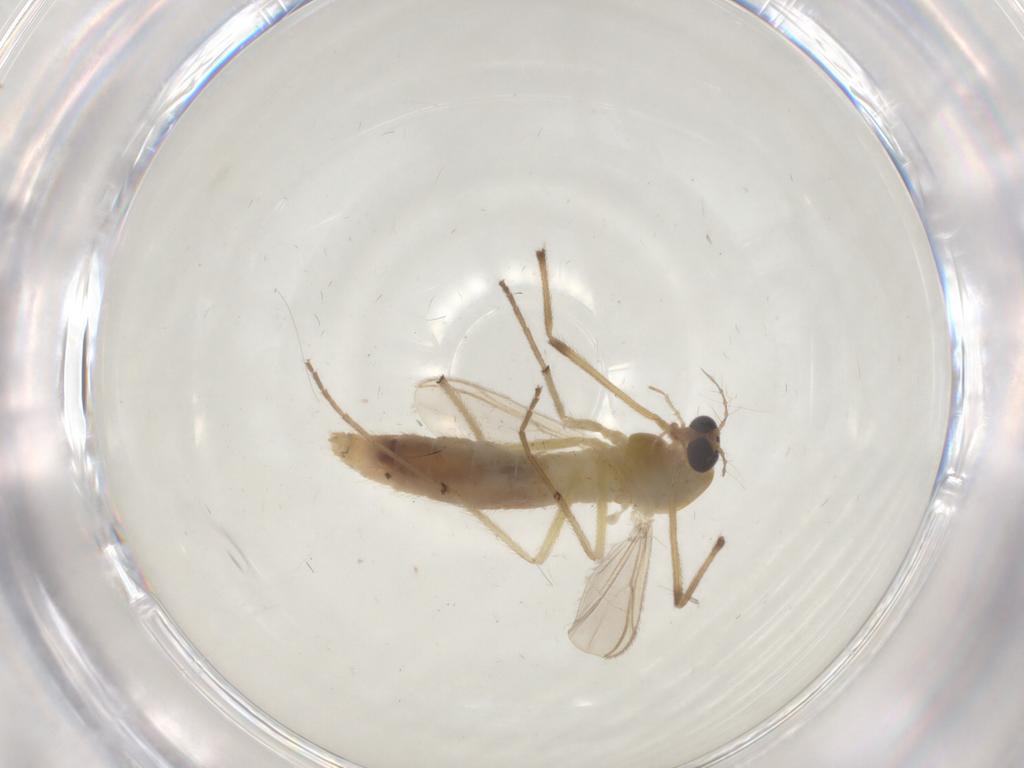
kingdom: Animalia
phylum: Arthropoda
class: Insecta
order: Diptera
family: Chironomidae
